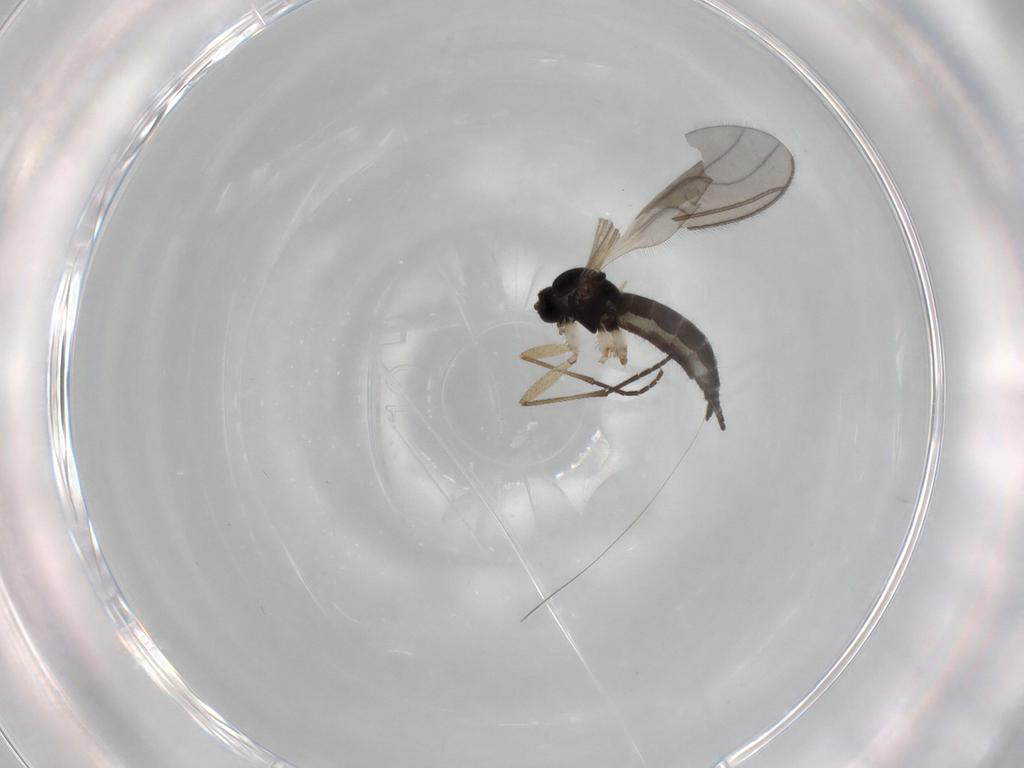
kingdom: Animalia
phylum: Arthropoda
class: Insecta
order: Diptera
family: Sciaridae
